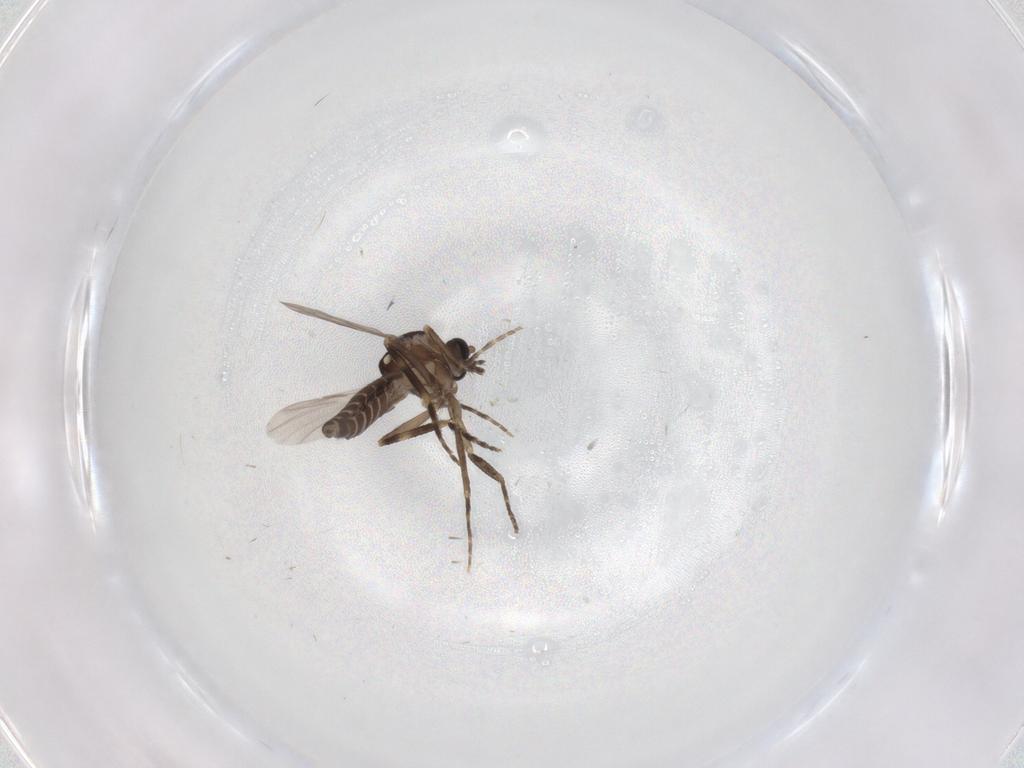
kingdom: Animalia
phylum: Arthropoda
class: Insecta
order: Diptera
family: Ceratopogonidae
